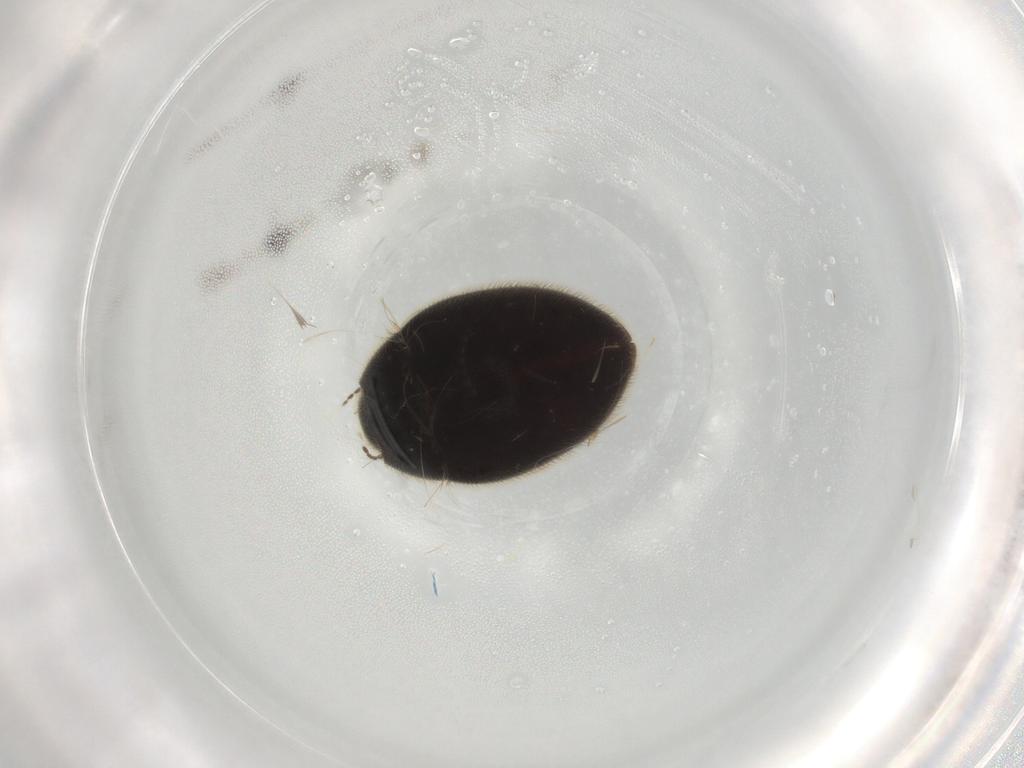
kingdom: Animalia
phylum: Arthropoda
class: Insecta
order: Coleoptera
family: Limnichidae
